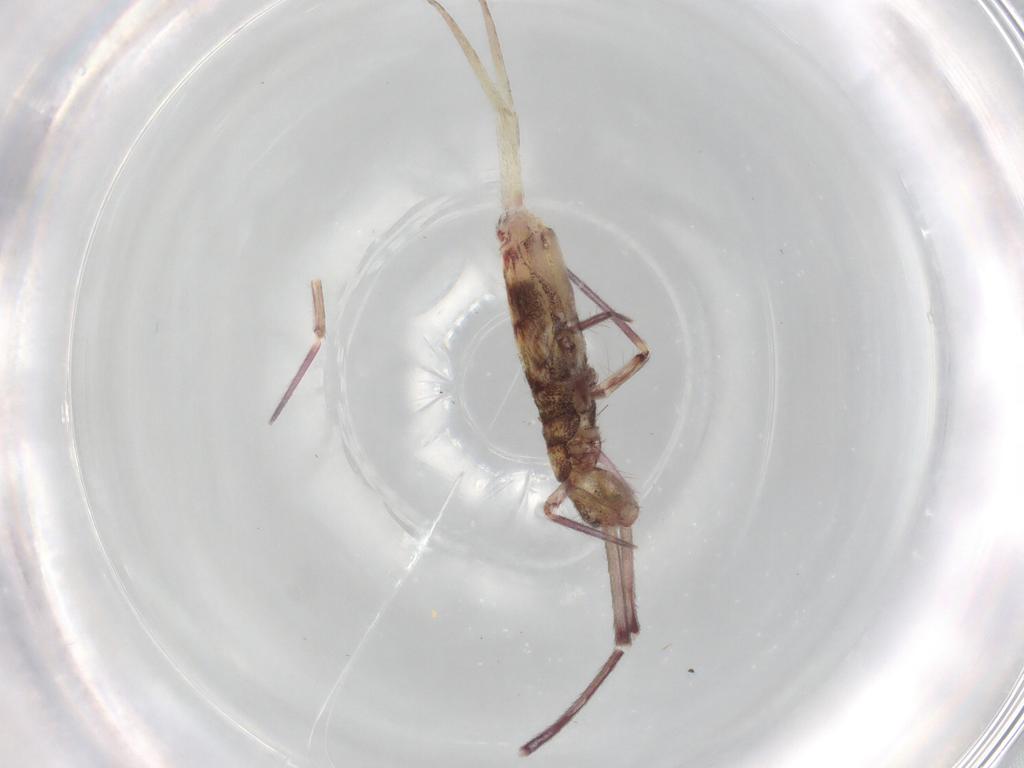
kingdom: Animalia
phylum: Arthropoda
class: Collembola
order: Entomobryomorpha
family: Entomobryidae
